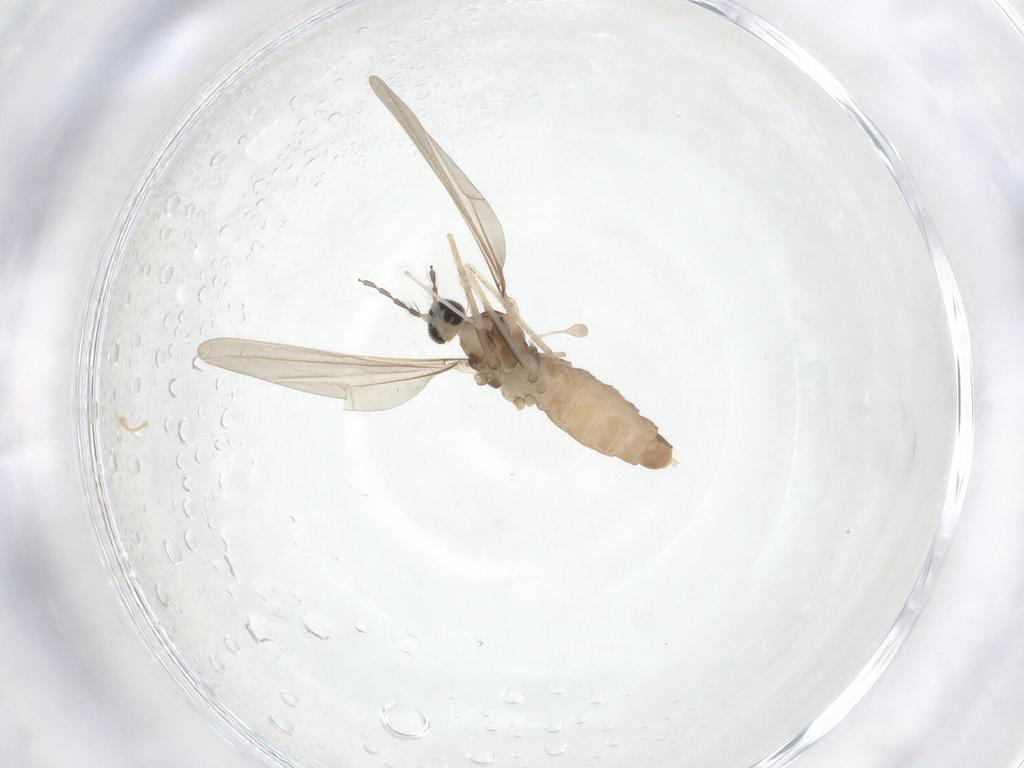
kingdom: Animalia
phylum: Arthropoda
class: Insecta
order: Diptera
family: Cecidomyiidae
